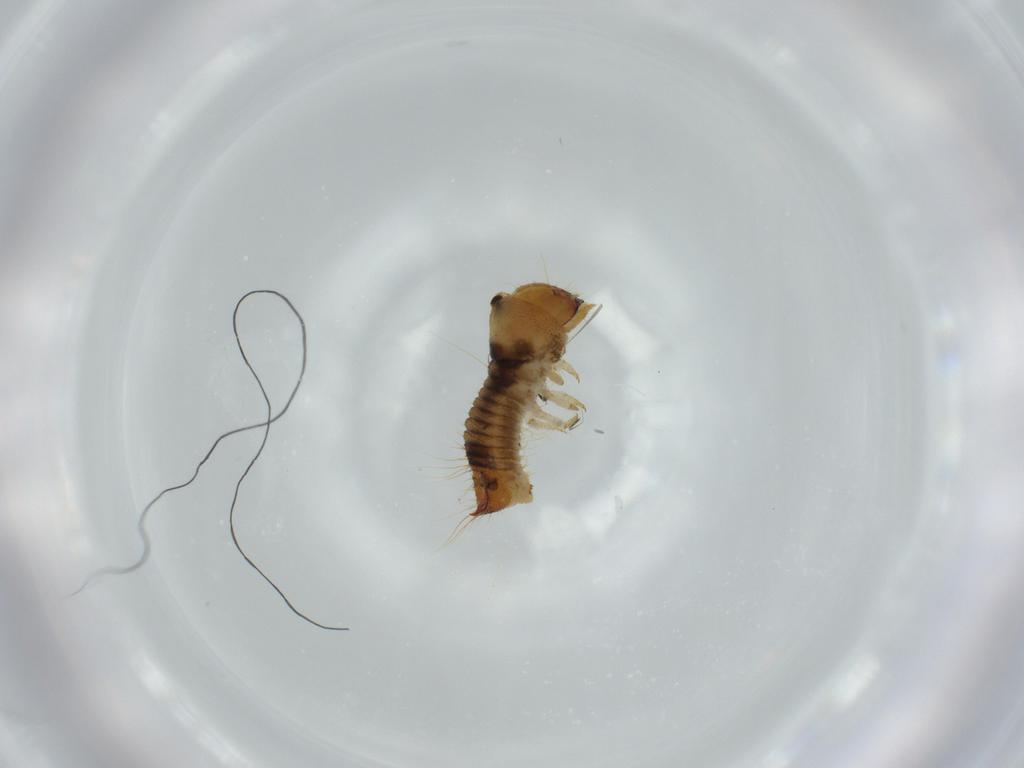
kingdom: Animalia
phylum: Arthropoda
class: Insecta
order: Coleoptera
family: Lymexylidae
